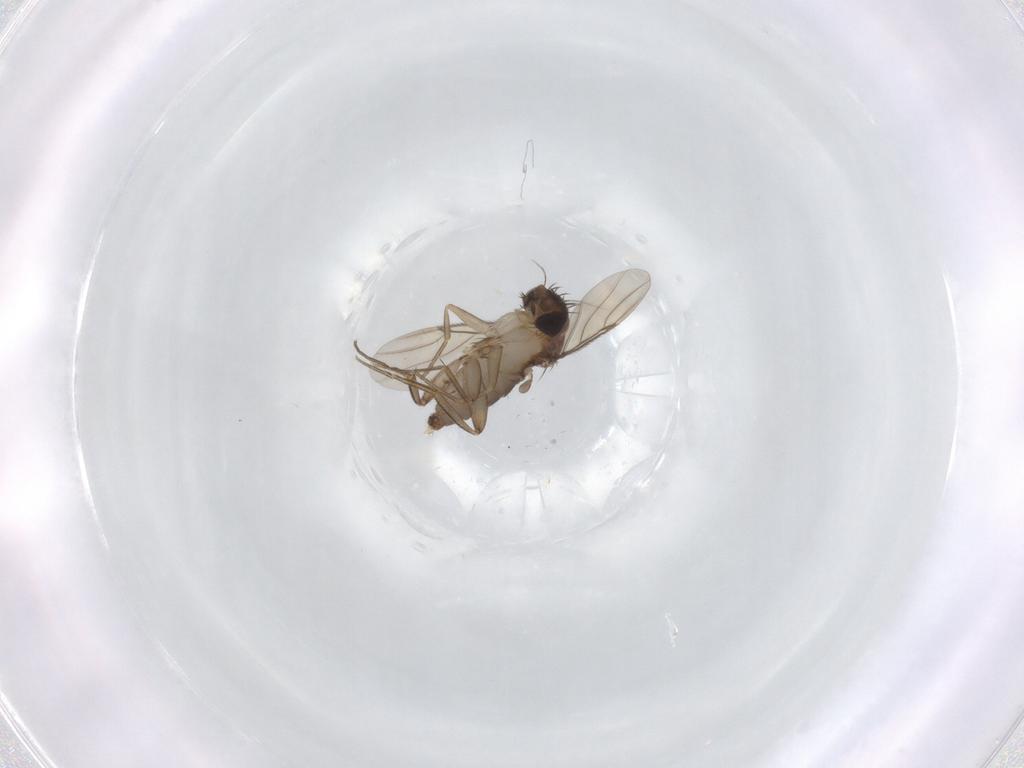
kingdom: Animalia
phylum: Arthropoda
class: Insecta
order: Diptera
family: Phoridae
